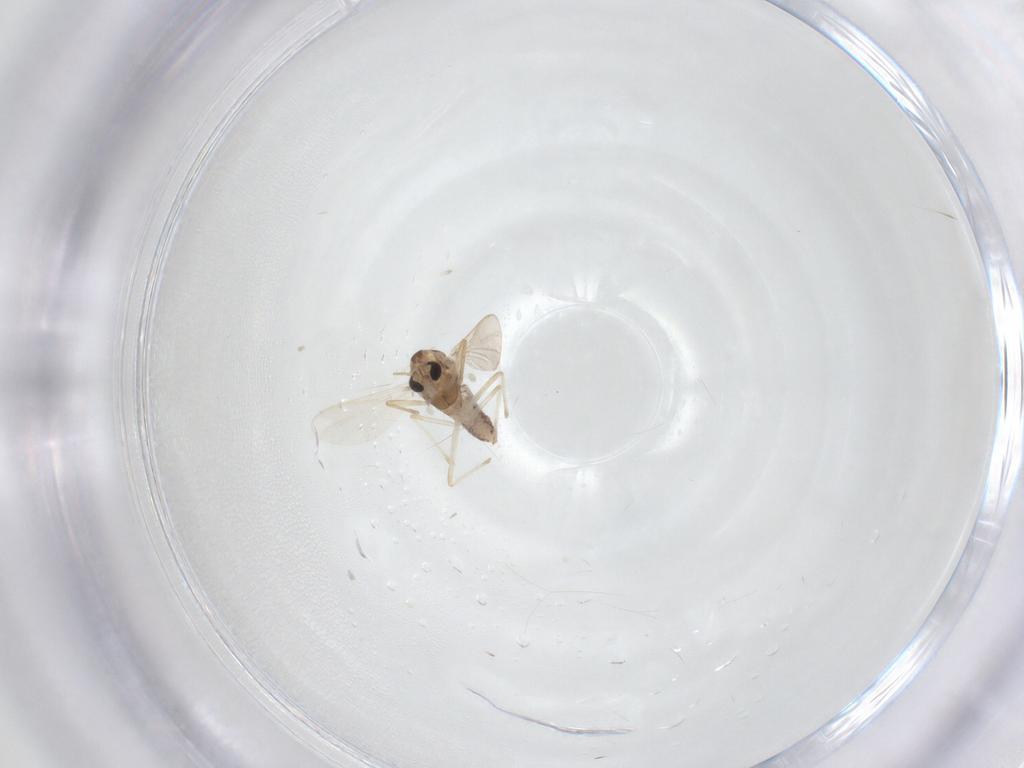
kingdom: Animalia
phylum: Arthropoda
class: Insecta
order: Diptera
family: Chironomidae
